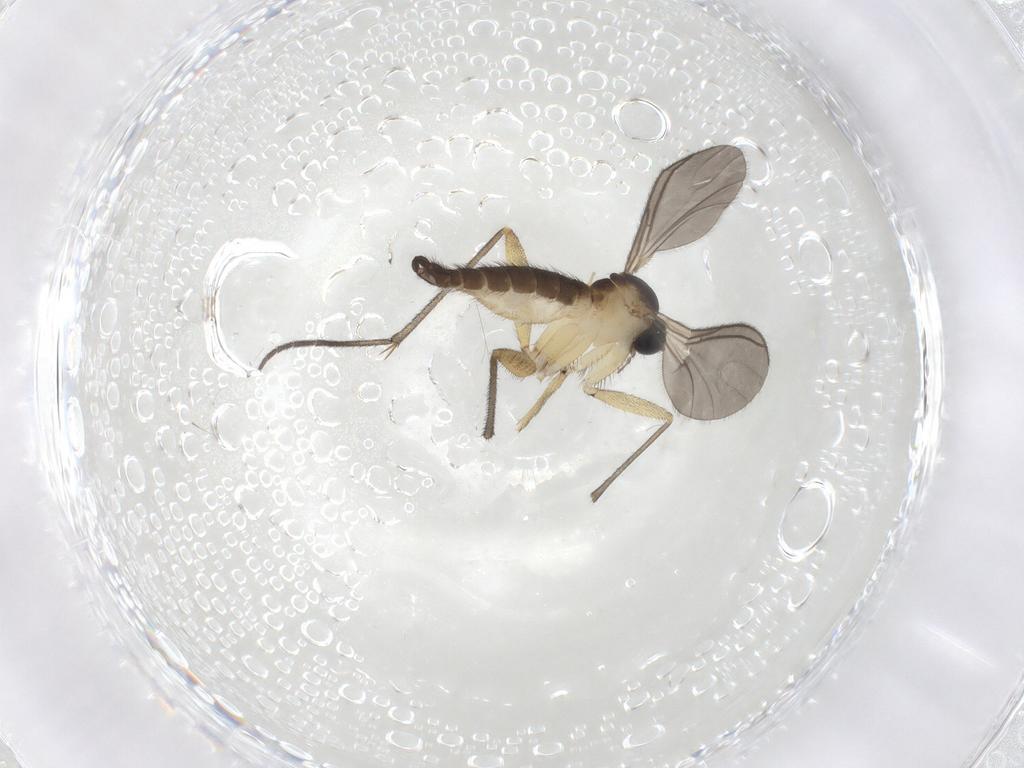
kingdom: Animalia
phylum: Arthropoda
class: Insecta
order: Diptera
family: Sciaridae
